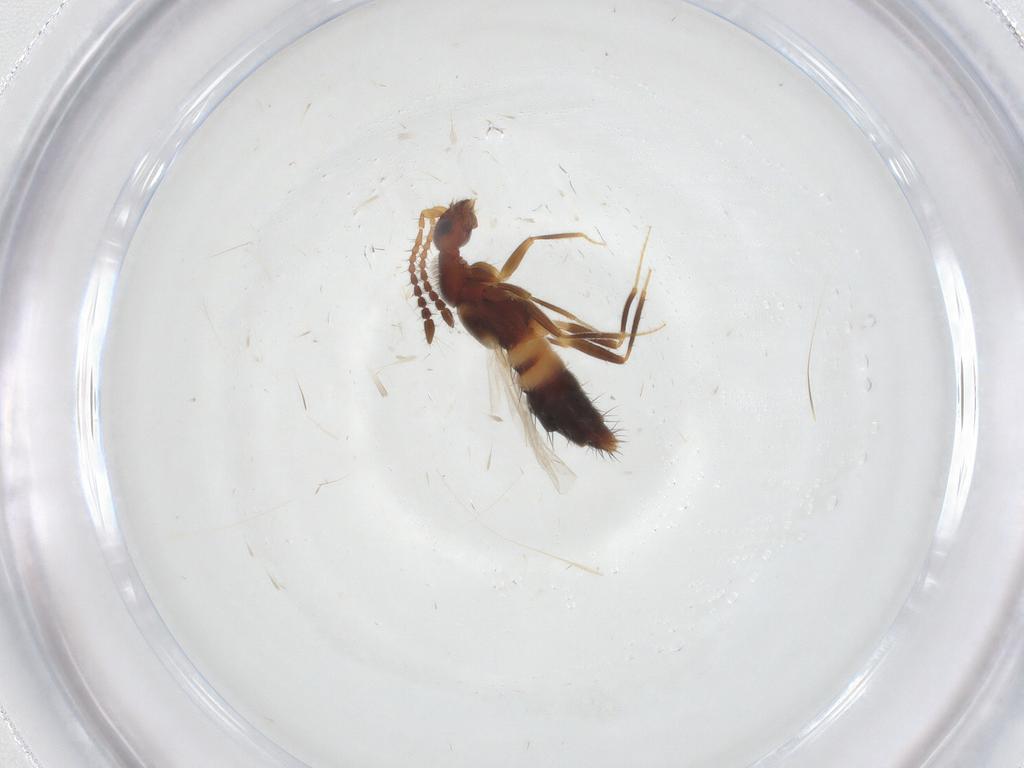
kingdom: Animalia
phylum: Arthropoda
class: Insecta
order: Coleoptera
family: Staphylinidae
